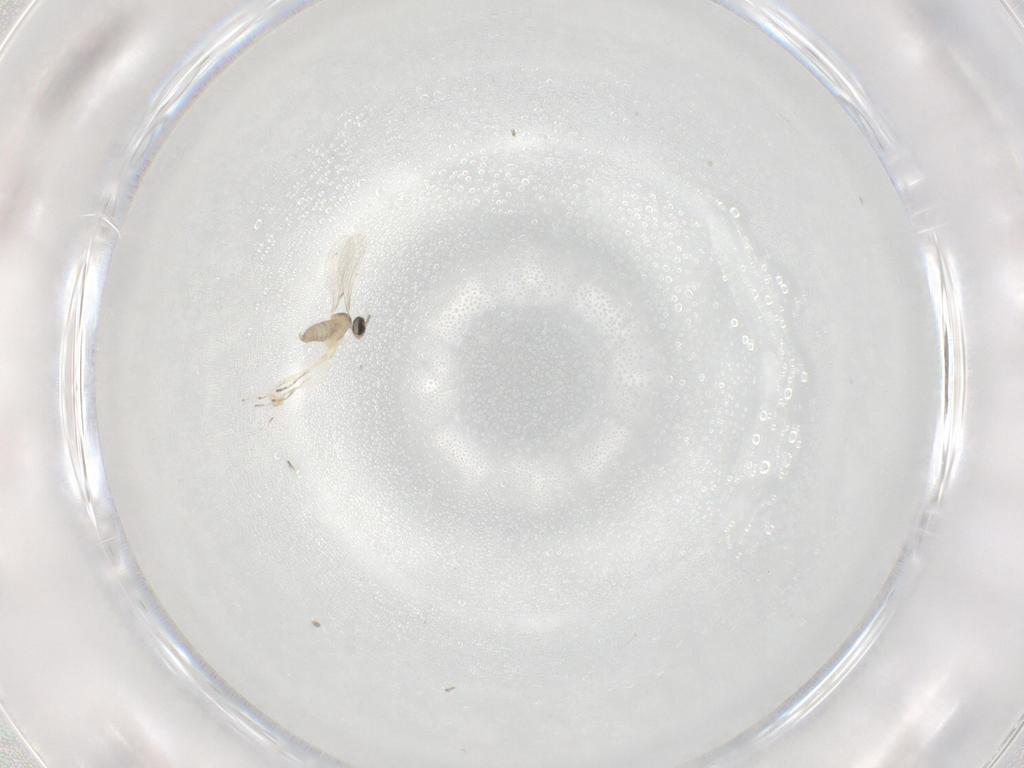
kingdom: Animalia
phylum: Arthropoda
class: Insecta
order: Diptera
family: Cecidomyiidae
